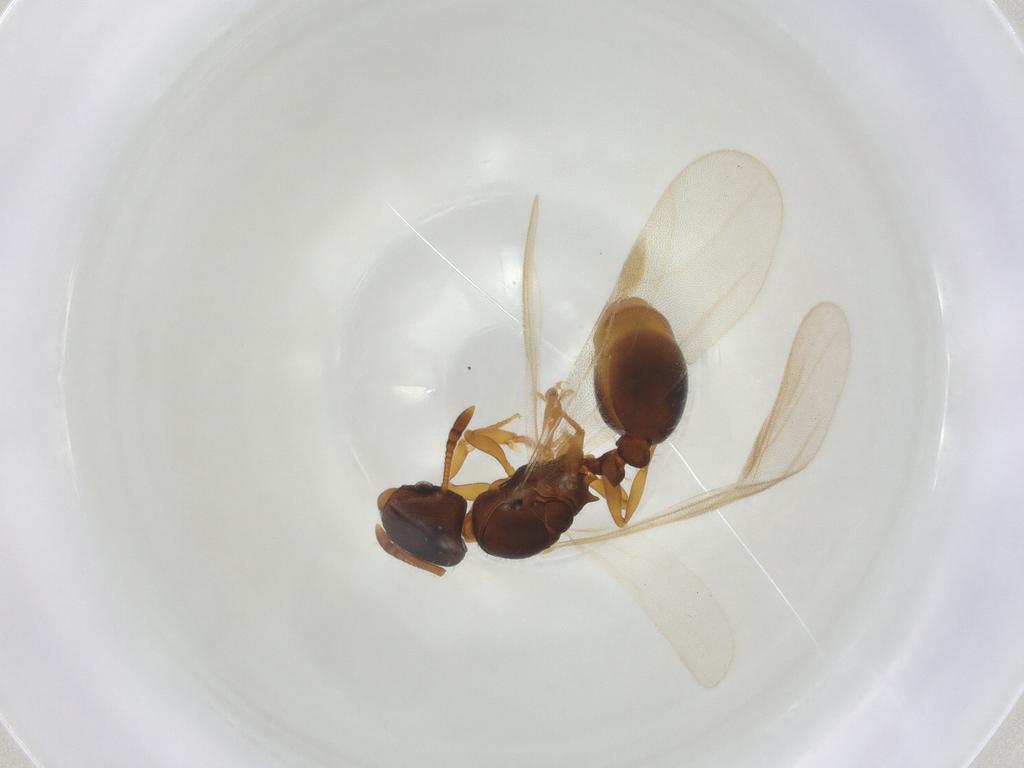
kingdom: Animalia
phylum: Arthropoda
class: Insecta
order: Hymenoptera
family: Formicidae
